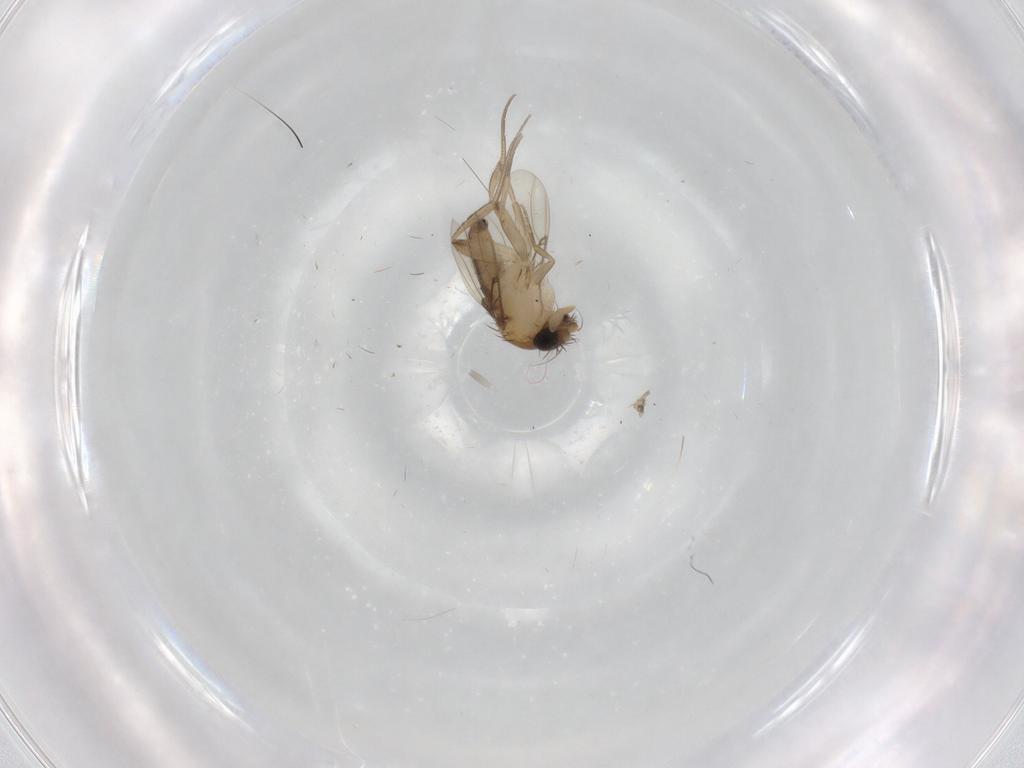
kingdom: Animalia
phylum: Arthropoda
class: Insecta
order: Diptera
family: Phoridae
